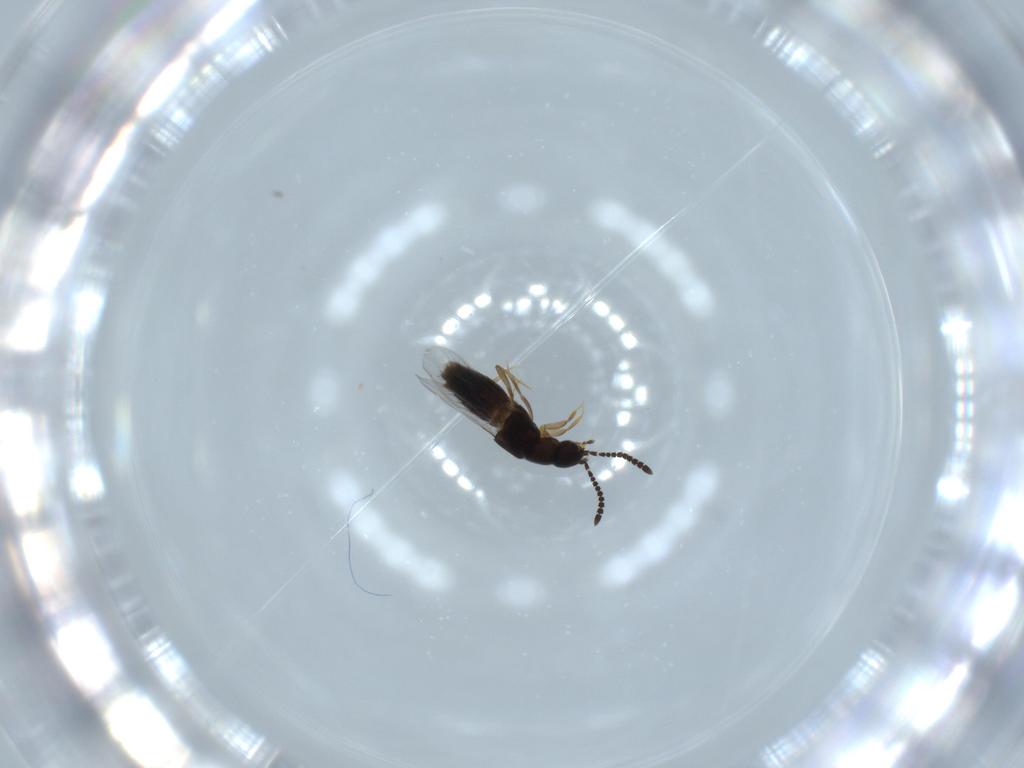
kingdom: Animalia
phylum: Arthropoda
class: Insecta
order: Coleoptera
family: Staphylinidae
